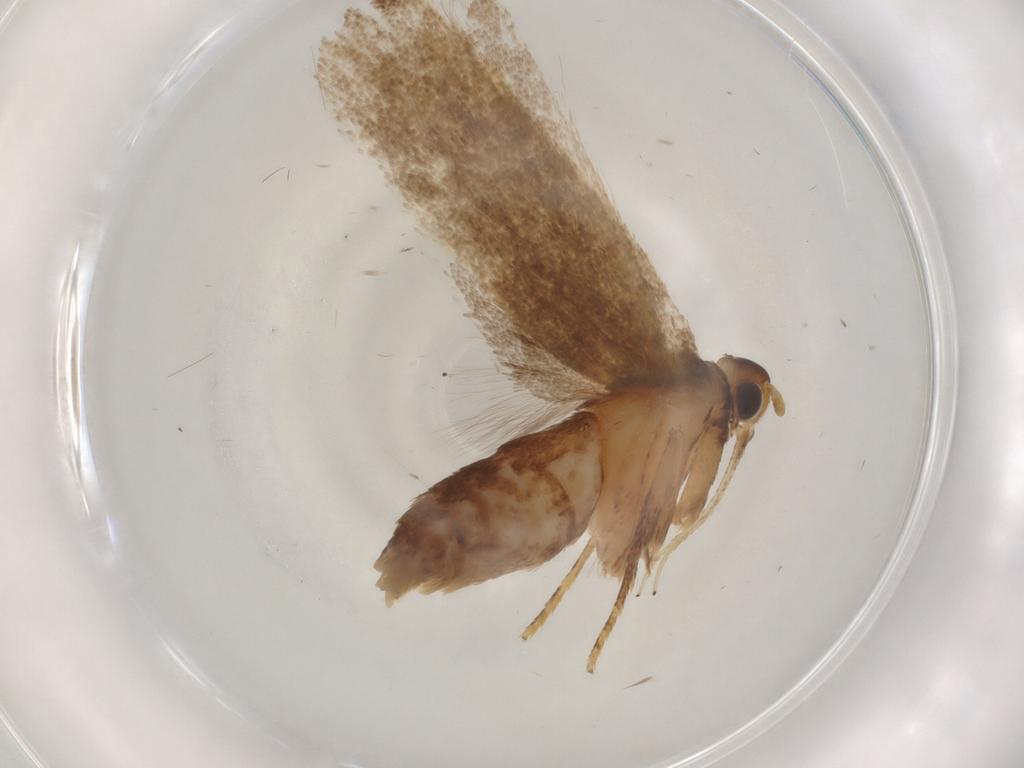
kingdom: Animalia
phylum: Arthropoda
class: Insecta
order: Lepidoptera
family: Lecithoceridae
